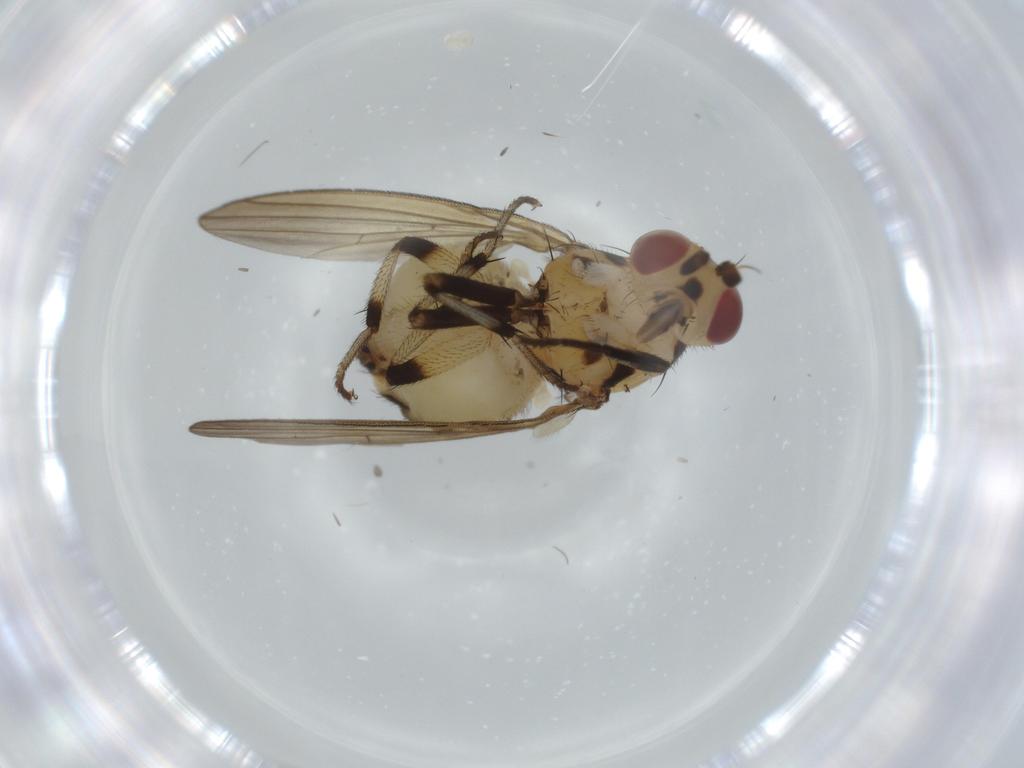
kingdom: Animalia
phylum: Arthropoda
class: Insecta
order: Diptera
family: Lauxaniidae
